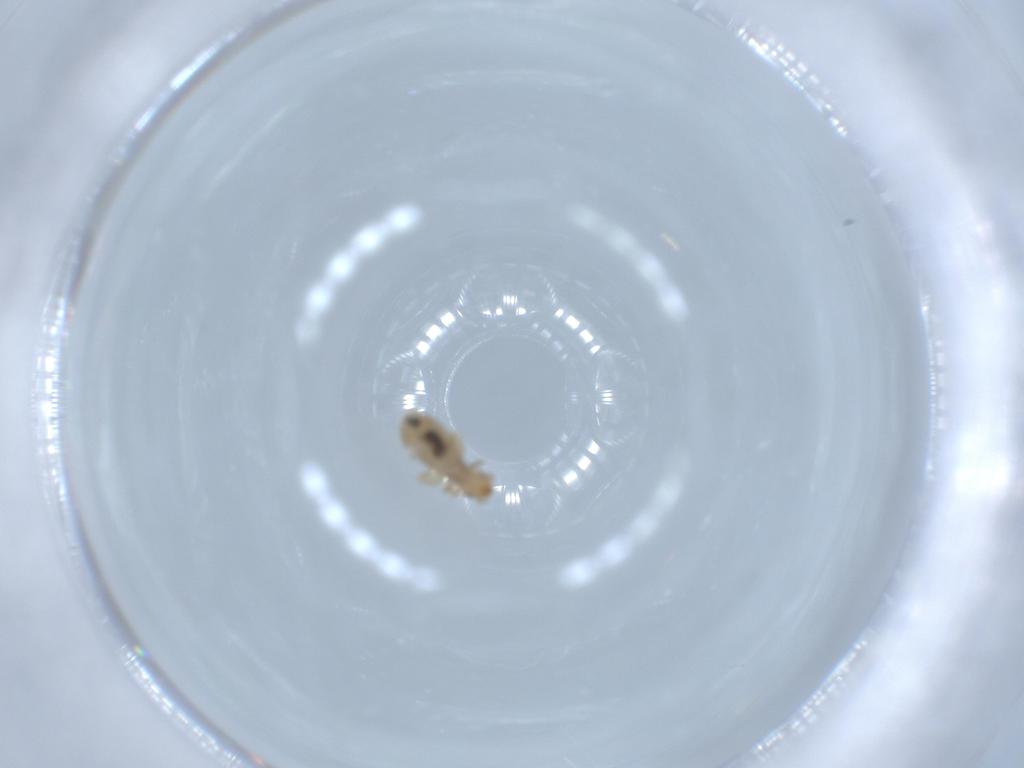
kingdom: Animalia
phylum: Arthropoda
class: Insecta
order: Psocodea
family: Liposcelididae
